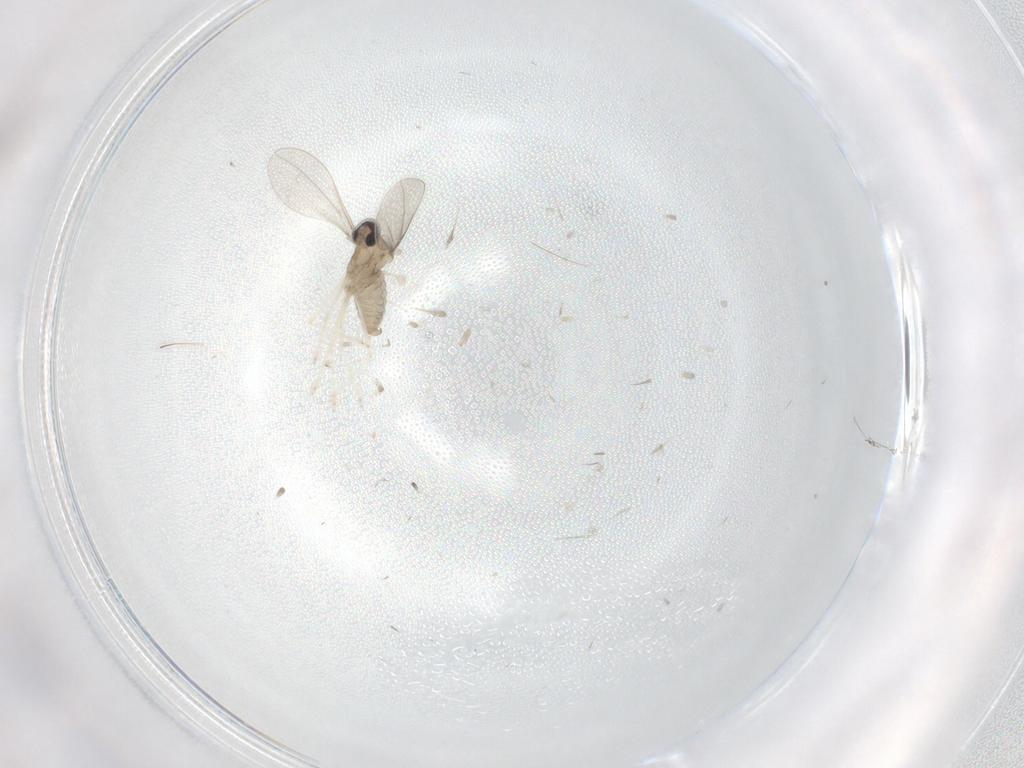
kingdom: Animalia
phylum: Arthropoda
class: Insecta
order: Diptera
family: Cecidomyiidae
